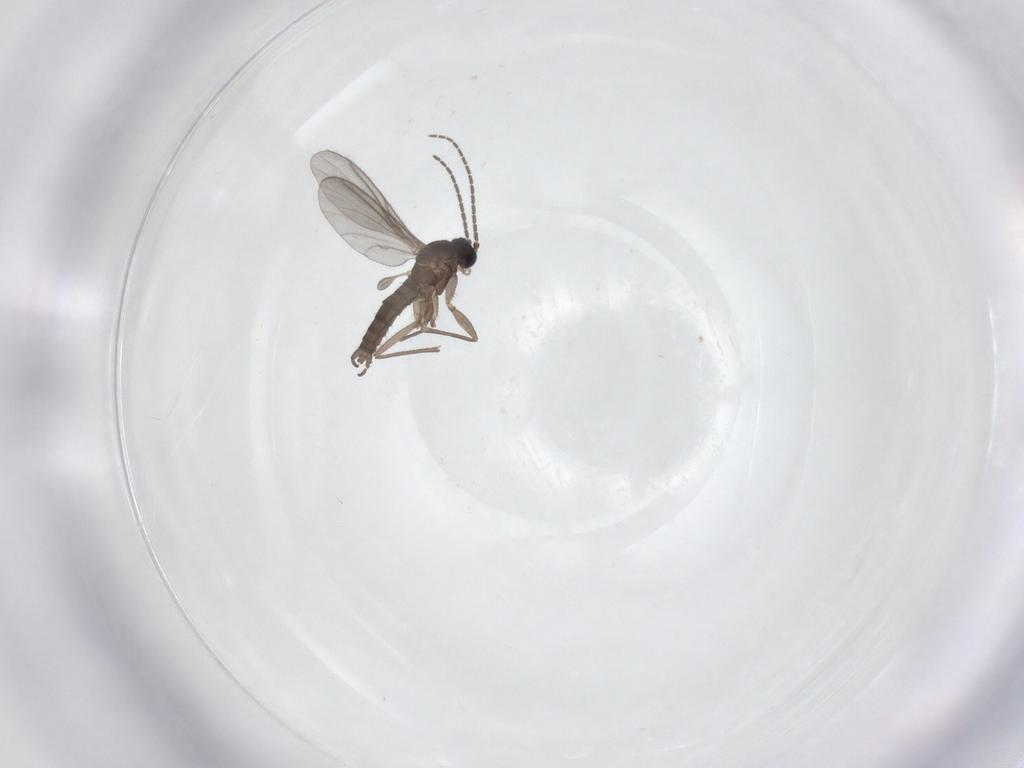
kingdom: Animalia
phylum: Arthropoda
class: Insecta
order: Diptera
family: Sciaridae
